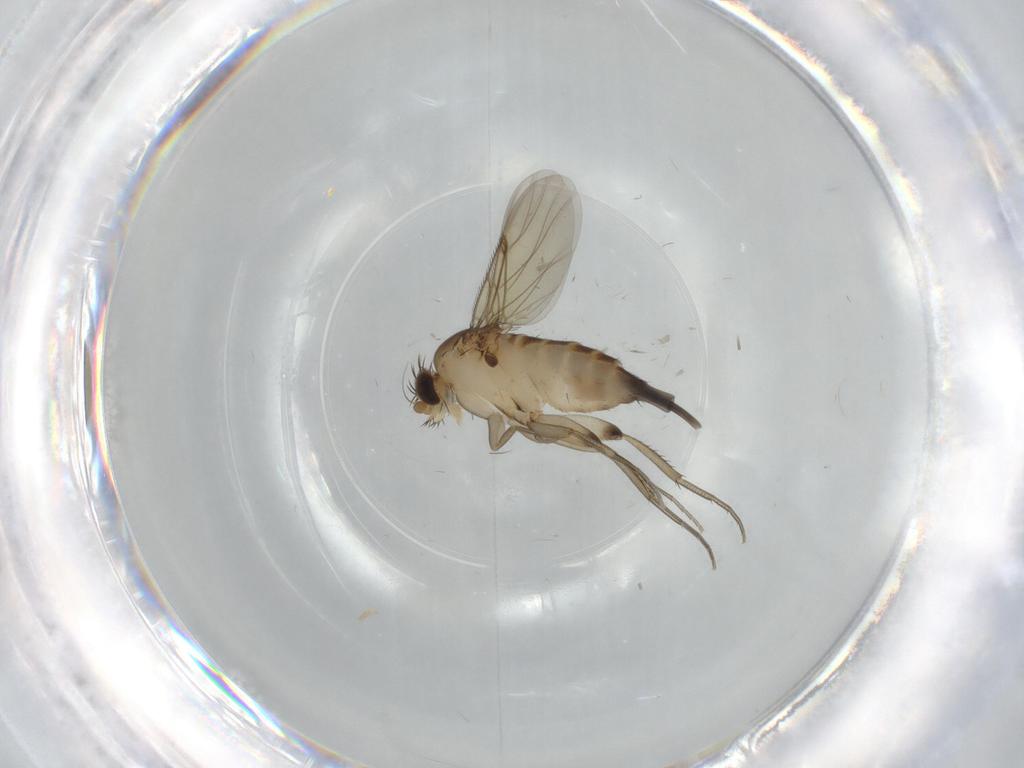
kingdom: Animalia
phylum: Arthropoda
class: Insecta
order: Diptera
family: Phoridae
